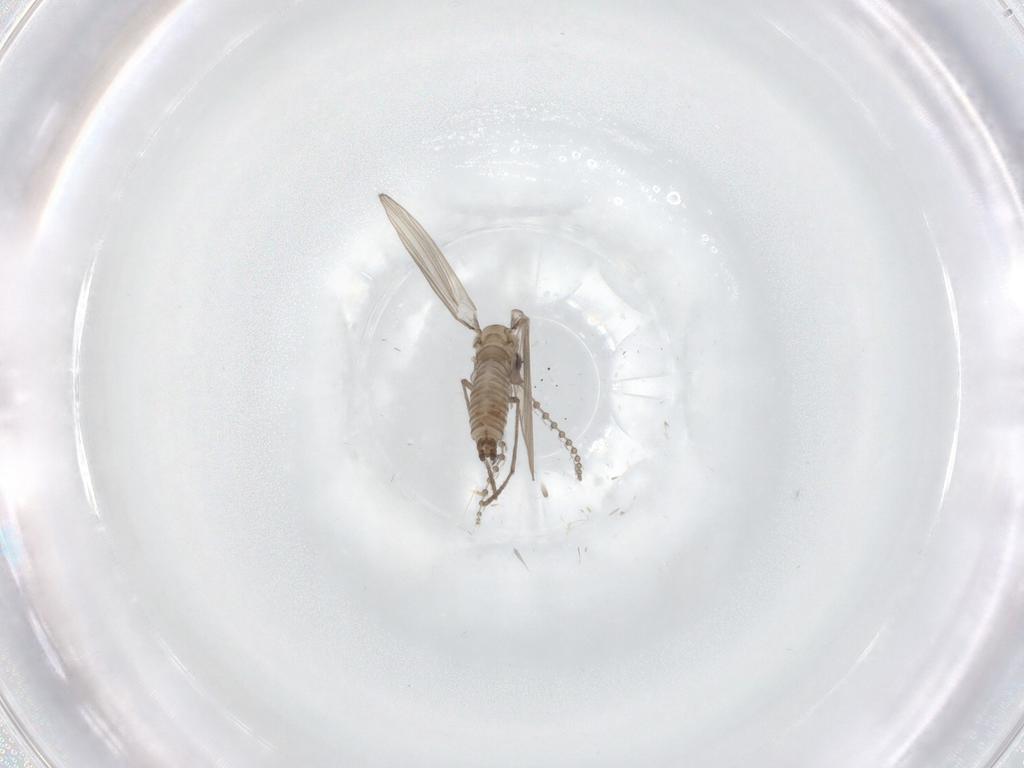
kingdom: Animalia
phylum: Arthropoda
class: Insecta
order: Diptera
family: Psychodidae
